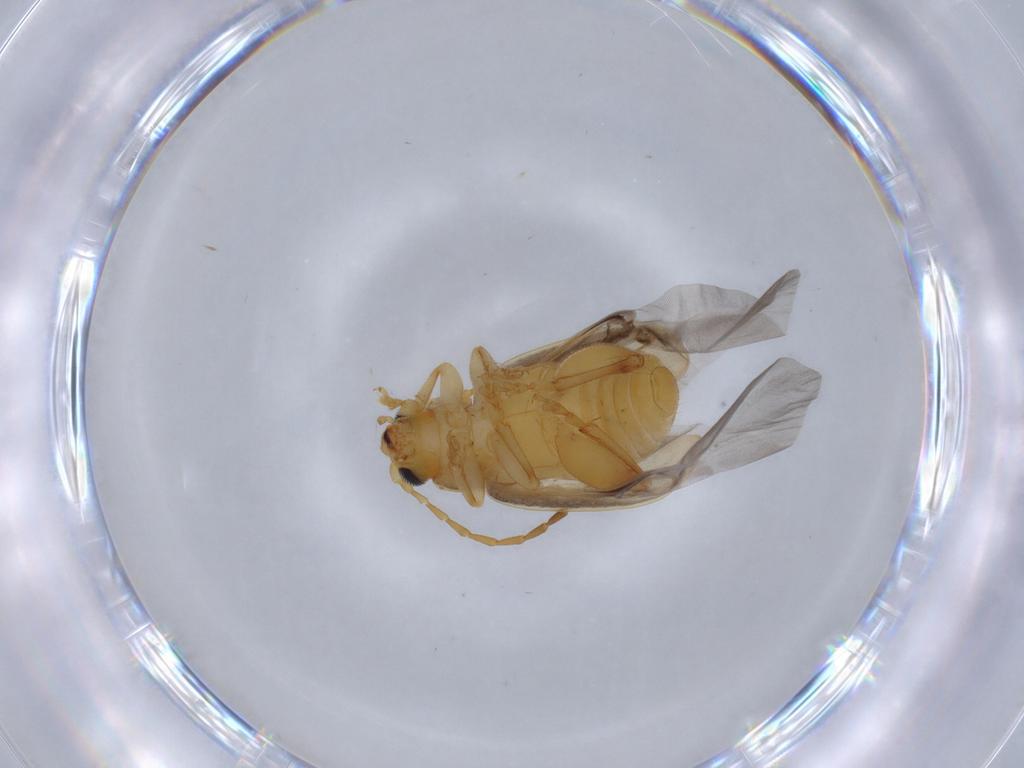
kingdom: Animalia
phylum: Arthropoda
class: Insecta
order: Coleoptera
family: Chrysomelidae
